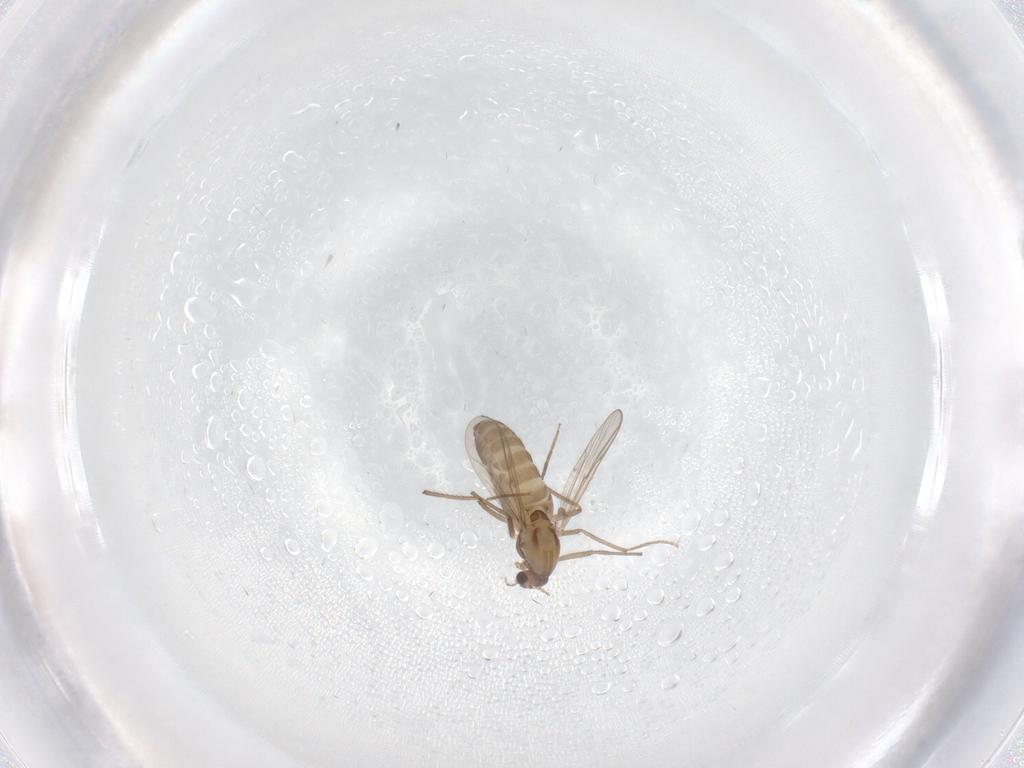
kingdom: Animalia
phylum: Arthropoda
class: Insecta
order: Diptera
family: Chironomidae
